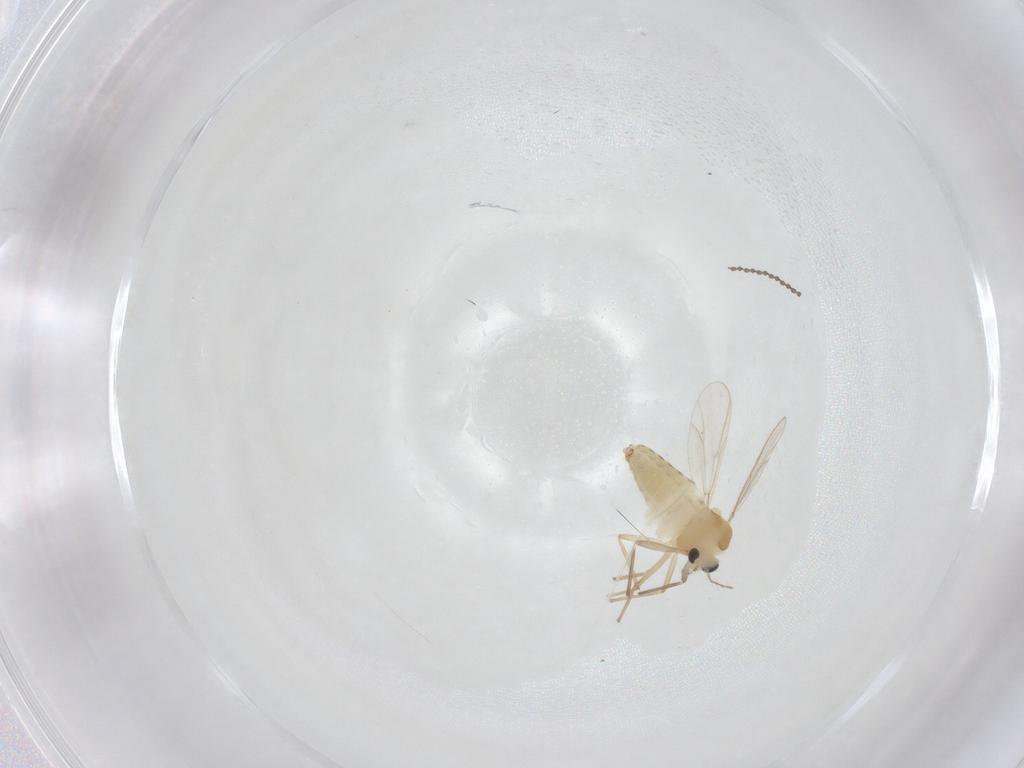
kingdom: Animalia
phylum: Arthropoda
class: Insecta
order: Diptera
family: Chironomidae
